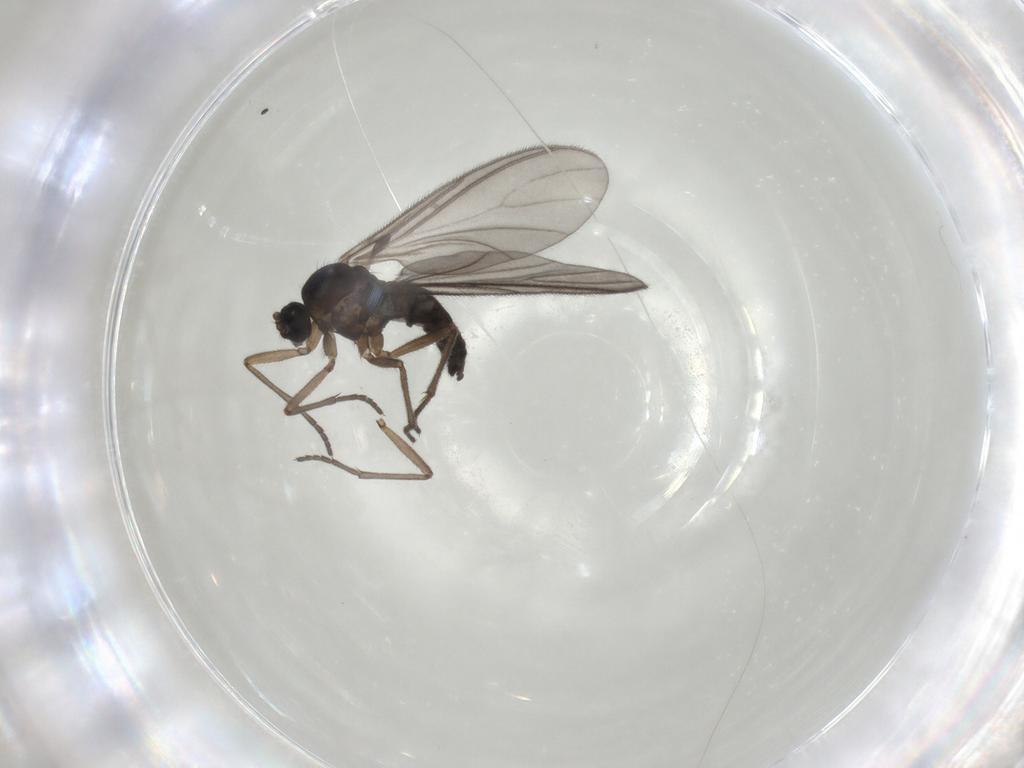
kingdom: Animalia
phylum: Arthropoda
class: Insecta
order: Diptera
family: Sciaridae
